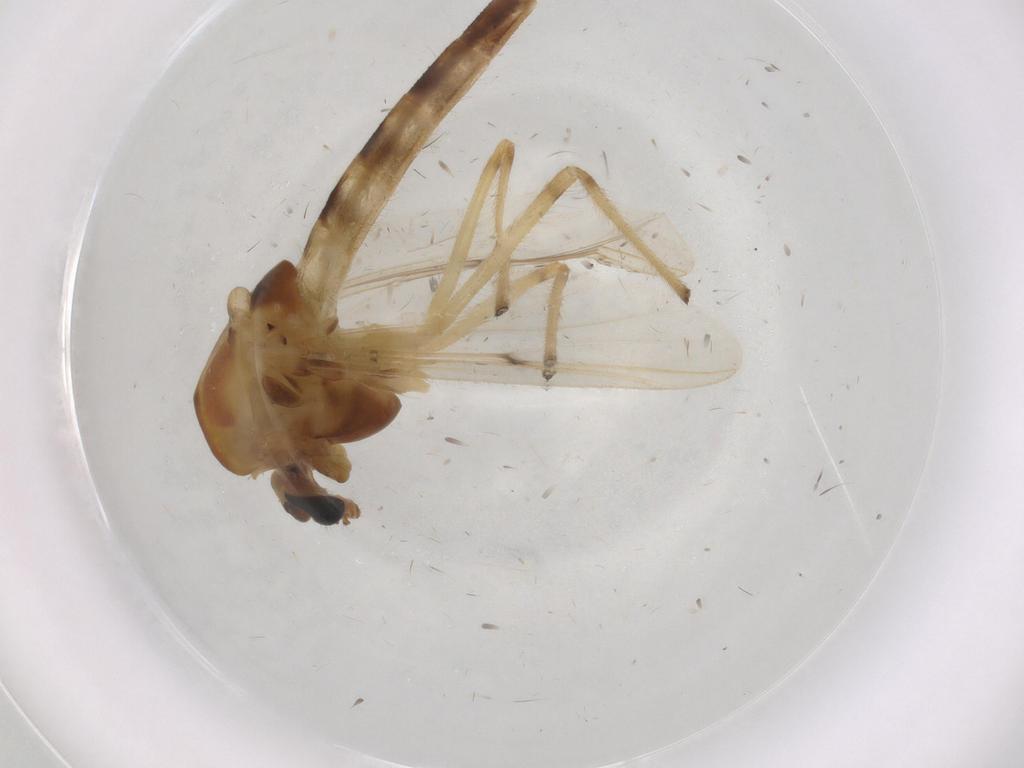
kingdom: Animalia
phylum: Arthropoda
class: Insecta
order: Diptera
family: Chironomidae
